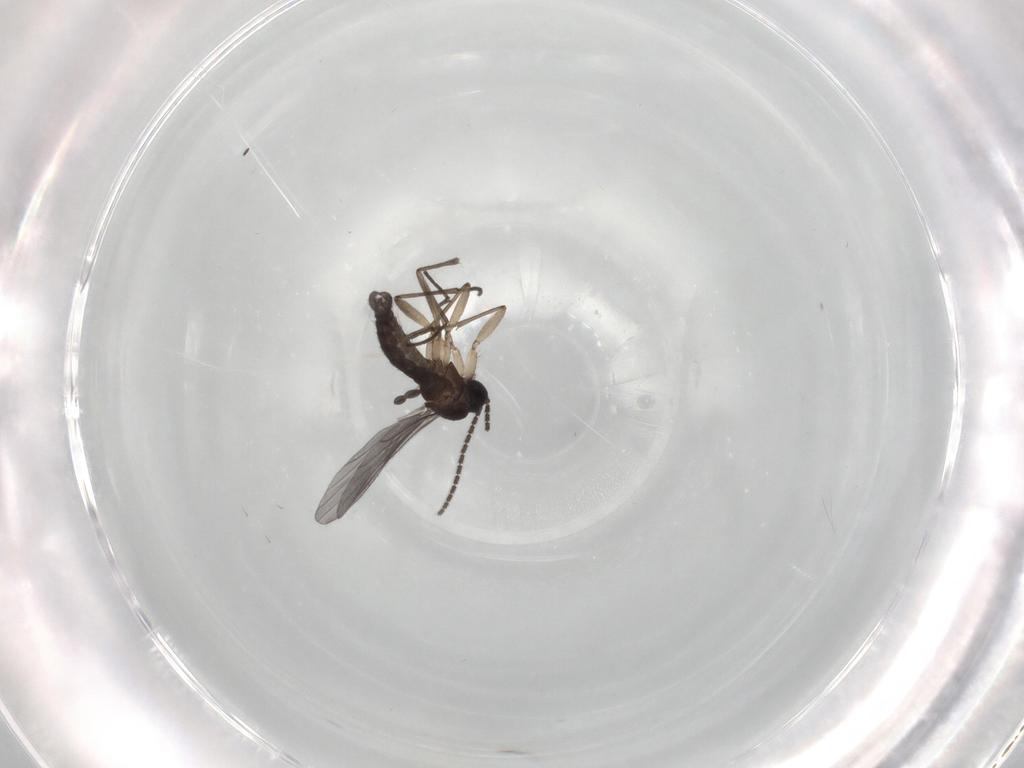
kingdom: Animalia
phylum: Arthropoda
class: Insecta
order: Diptera
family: Sciaridae
